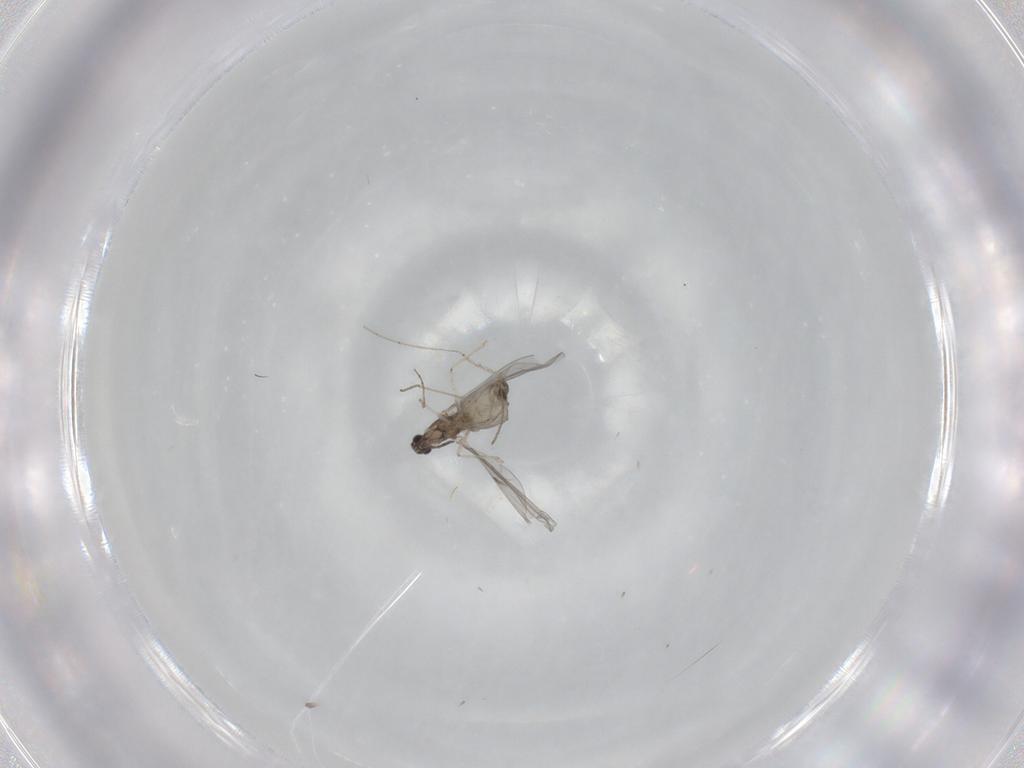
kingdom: Animalia
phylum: Arthropoda
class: Insecta
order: Diptera
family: Cecidomyiidae
